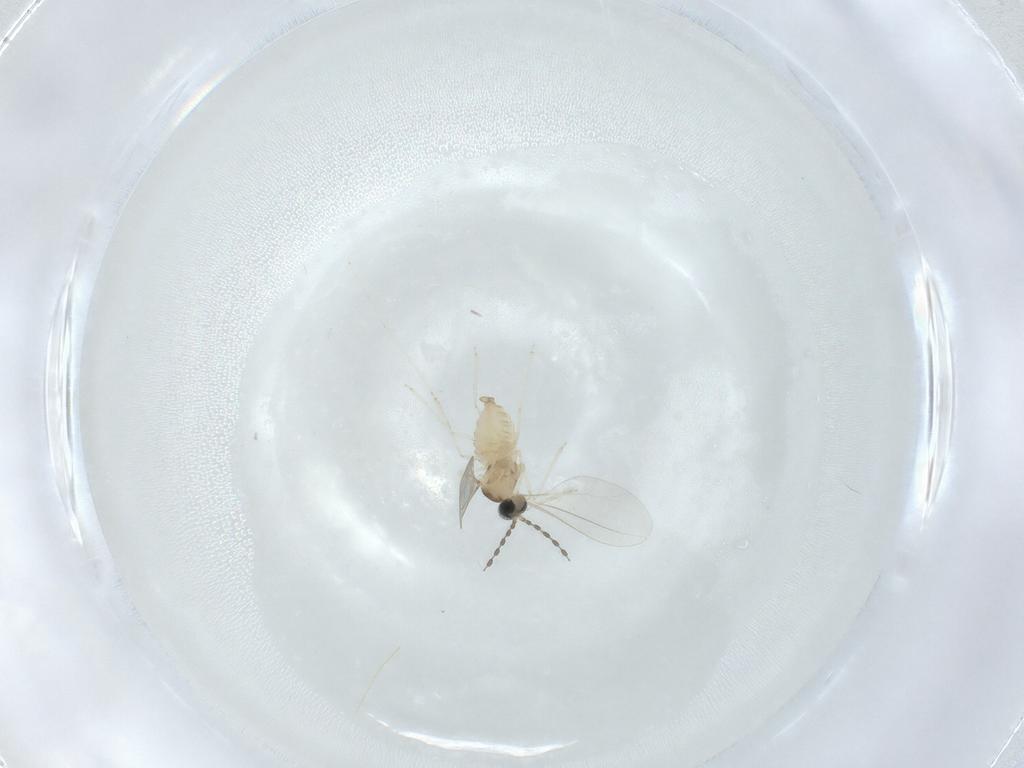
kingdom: Animalia
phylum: Arthropoda
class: Insecta
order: Diptera
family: Cecidomyiidae
